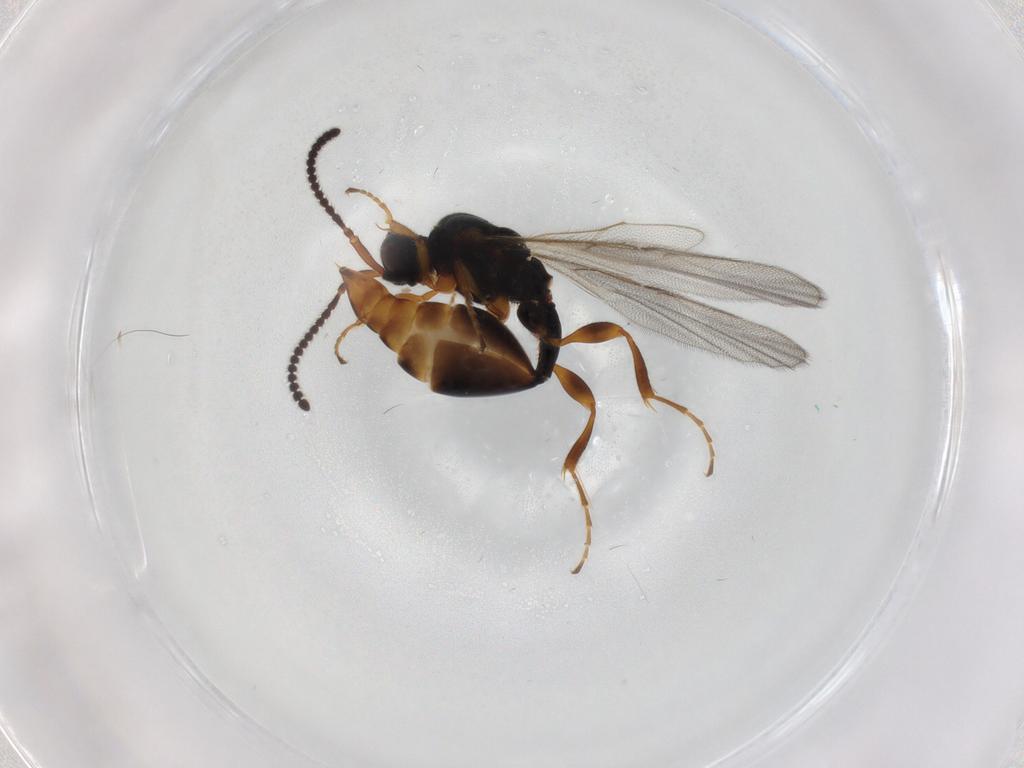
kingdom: Animalia
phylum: Arthropoda
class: Insecta
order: Hymenoptera
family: Diapriidae
